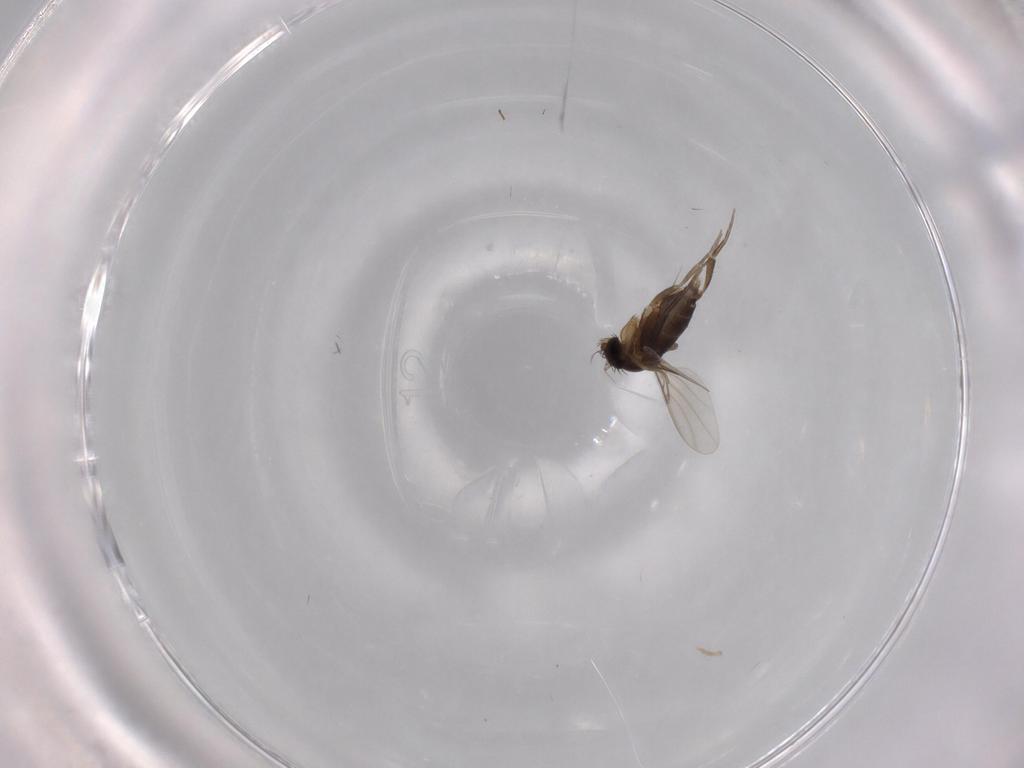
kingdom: Animalia
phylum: Arthropoda
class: Insecta
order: Diptera
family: Phoridae
